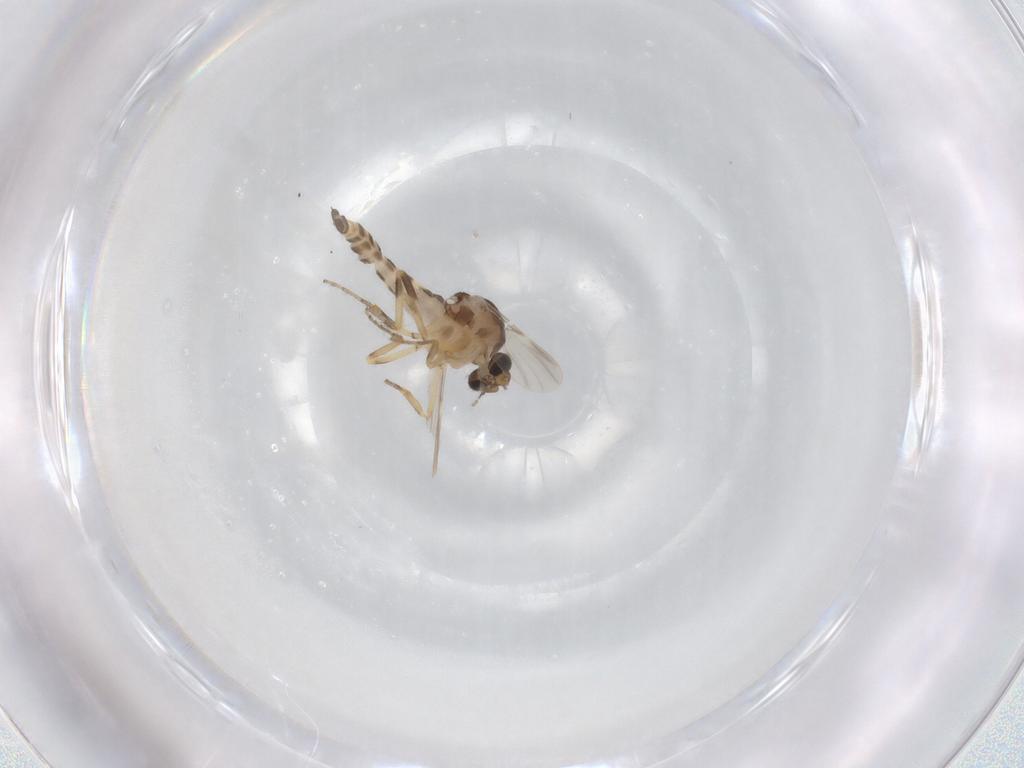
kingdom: Animalia
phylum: Arthropoda
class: Insecta
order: Diptera
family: Ceratopogonidae
